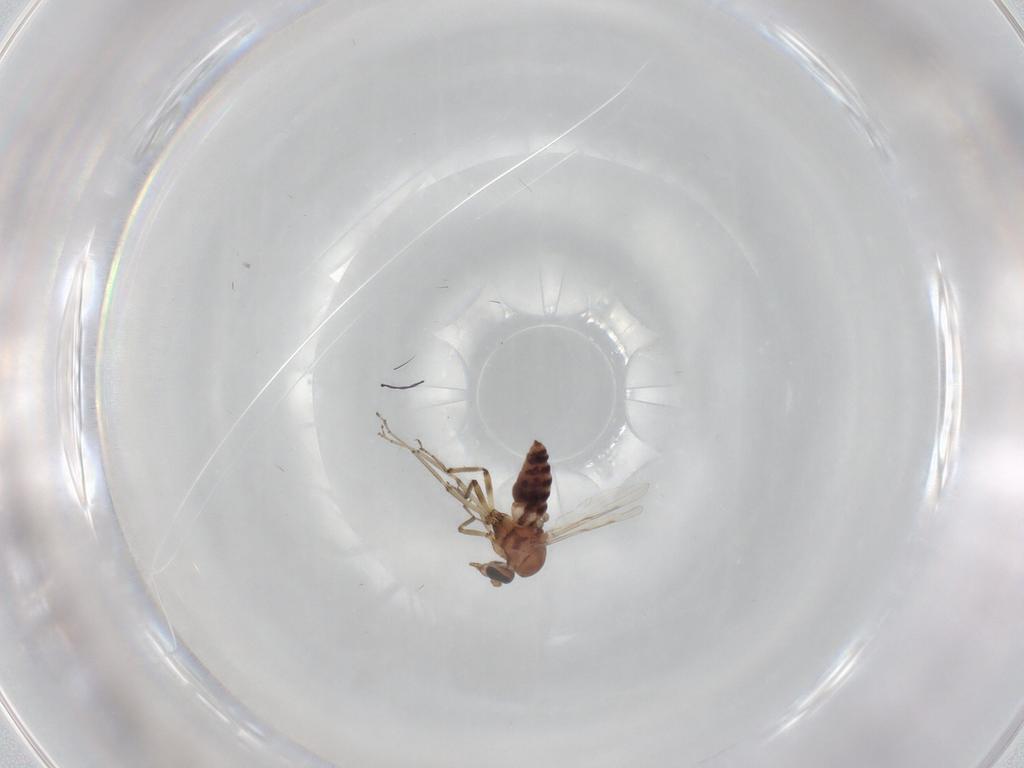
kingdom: Animalia
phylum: Arthropoda
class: Insecta
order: Diptera
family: Ceratopogonidae
